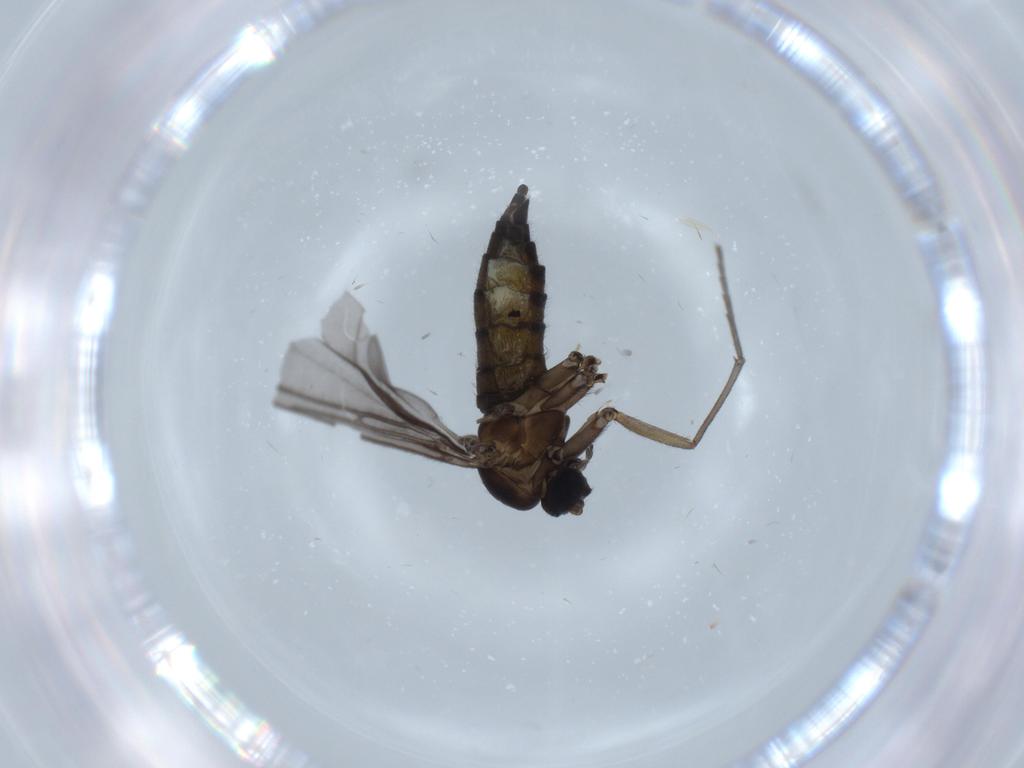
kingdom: Animalia
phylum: Arthropoda
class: Insecta
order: Diptera
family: Sciaridae
